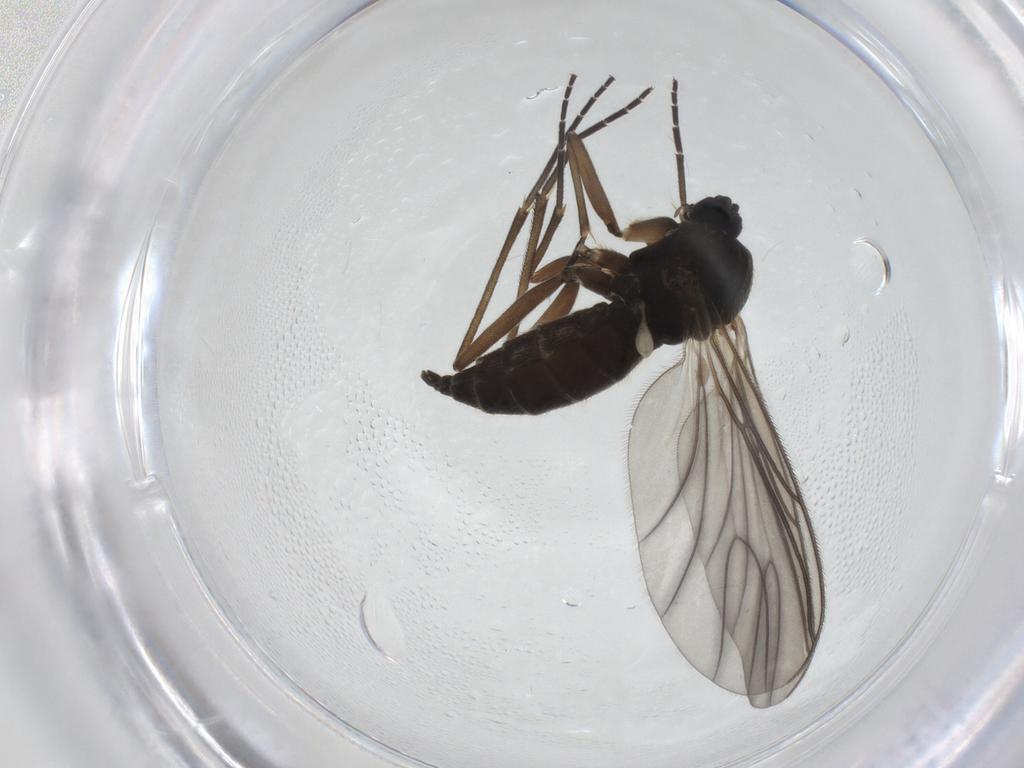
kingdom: Animalia
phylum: Arthropoda
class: Insecta
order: Diptera
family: Sciaridae
